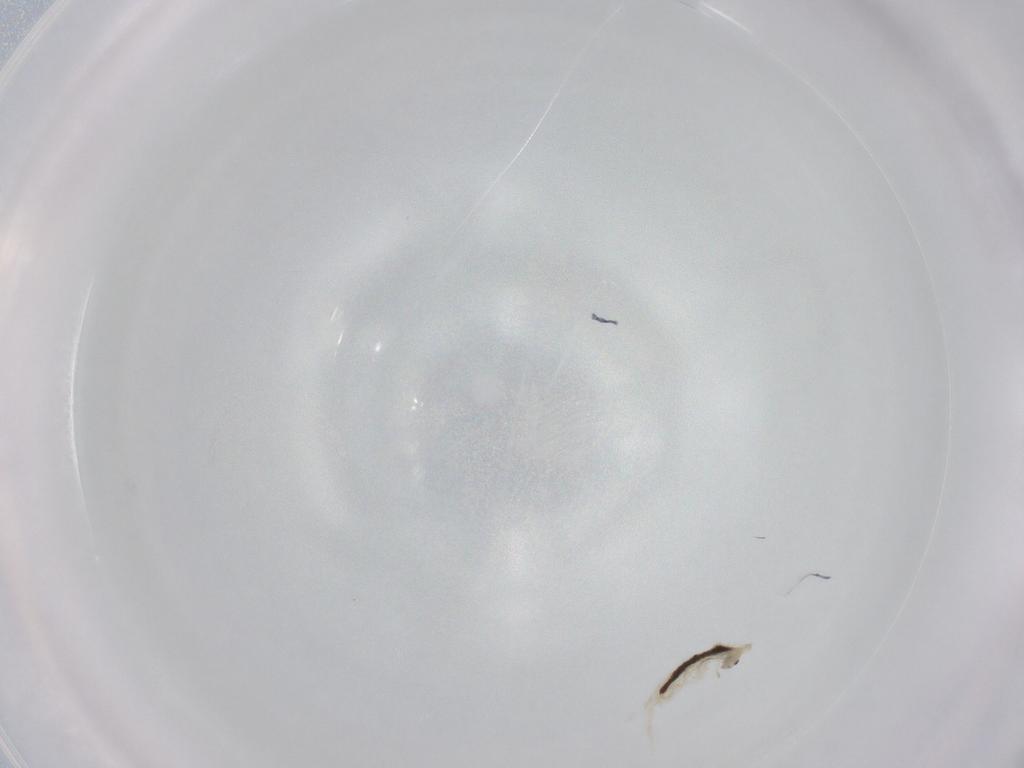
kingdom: Animalia
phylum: Arthropoda
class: Collembola
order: Entomobryomorpha
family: Entomobryidae
